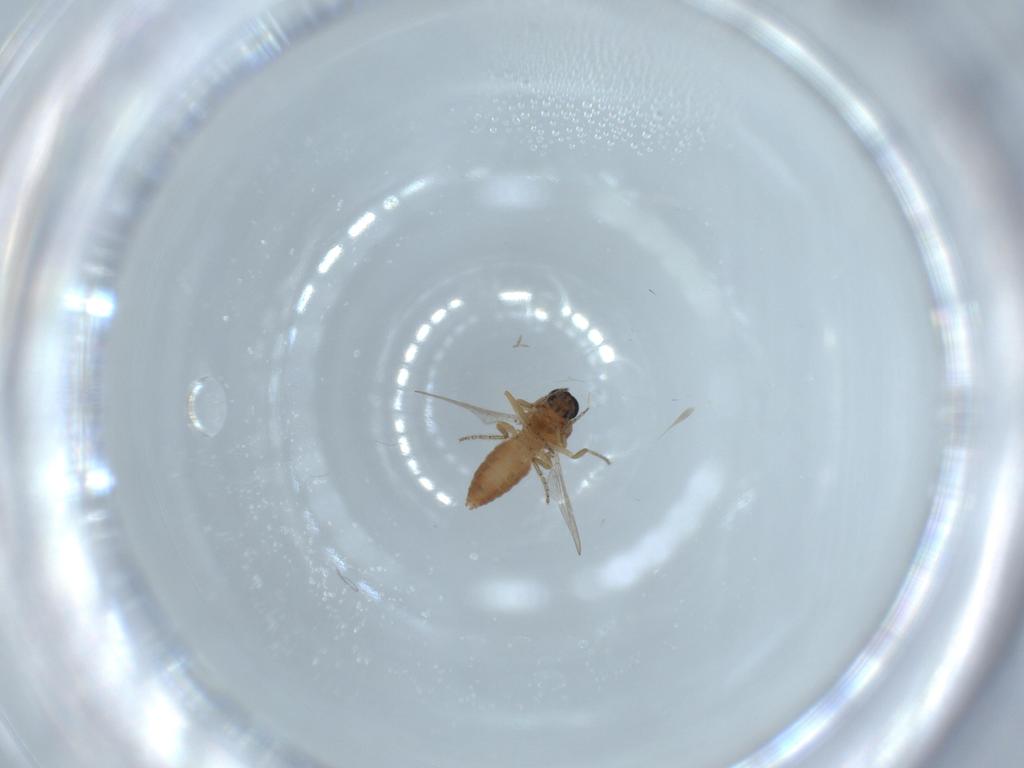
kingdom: Animalia
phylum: Arthropoda
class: Insecta
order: Diptera
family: Ceratopogonidae
